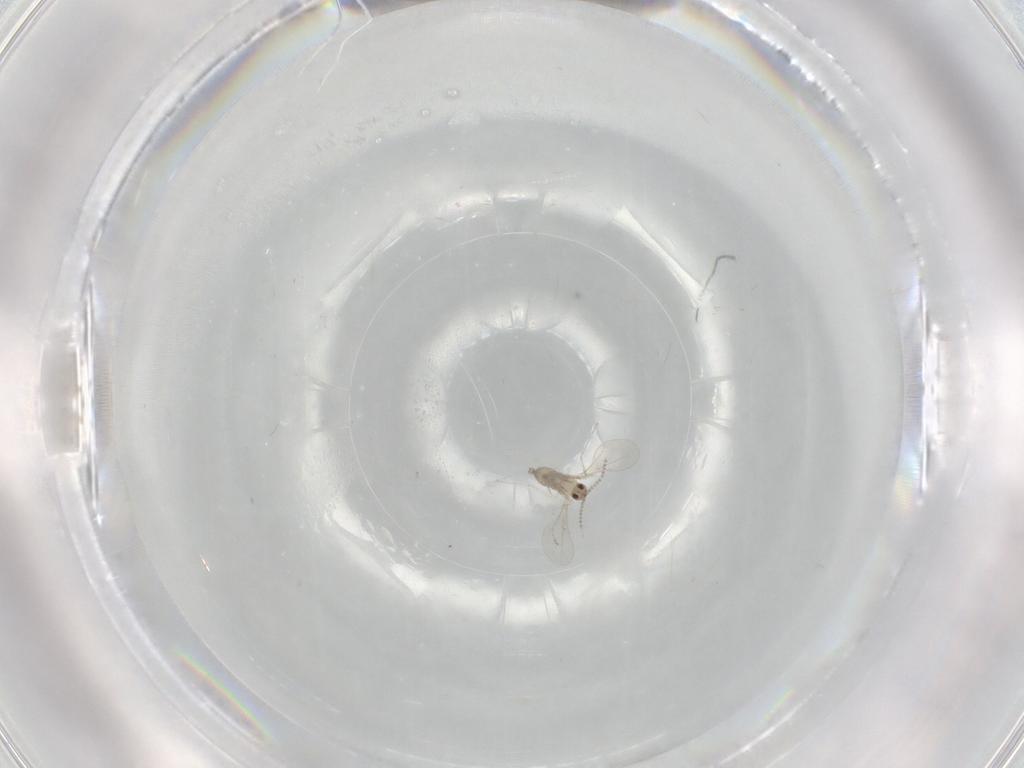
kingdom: Animalia
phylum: Arthropoda
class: Insecta
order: Diptera
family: Cecidomyiidae
